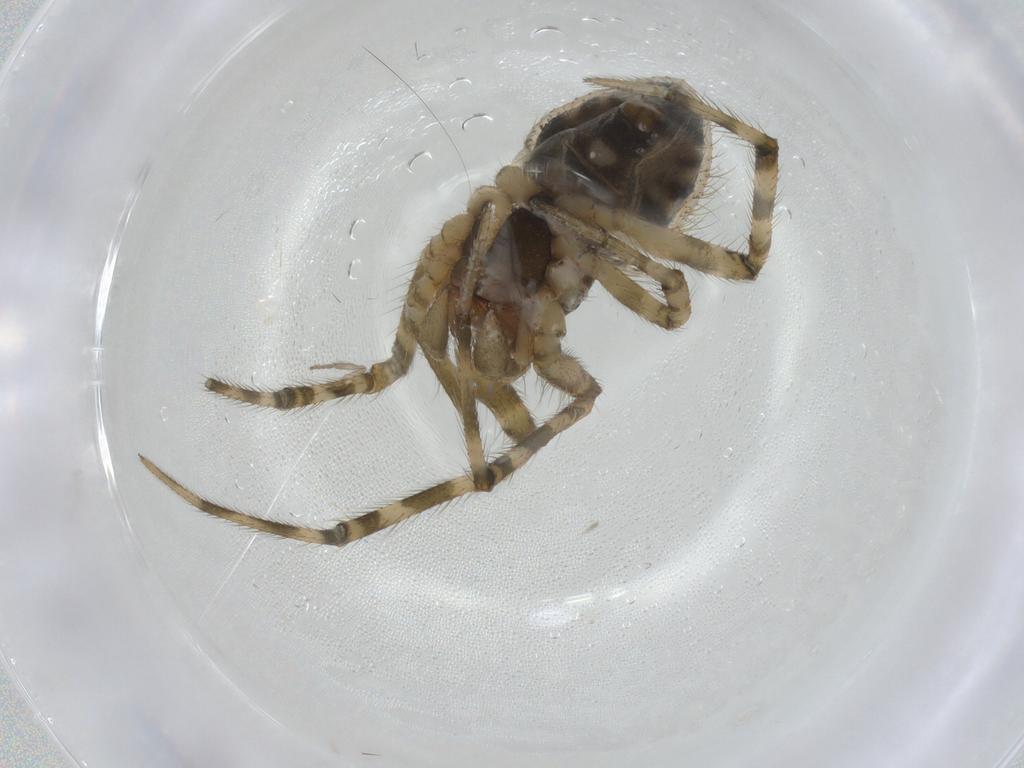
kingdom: Animalia
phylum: Arthropoda
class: Arachnida
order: Araneae
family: Theridiidae
